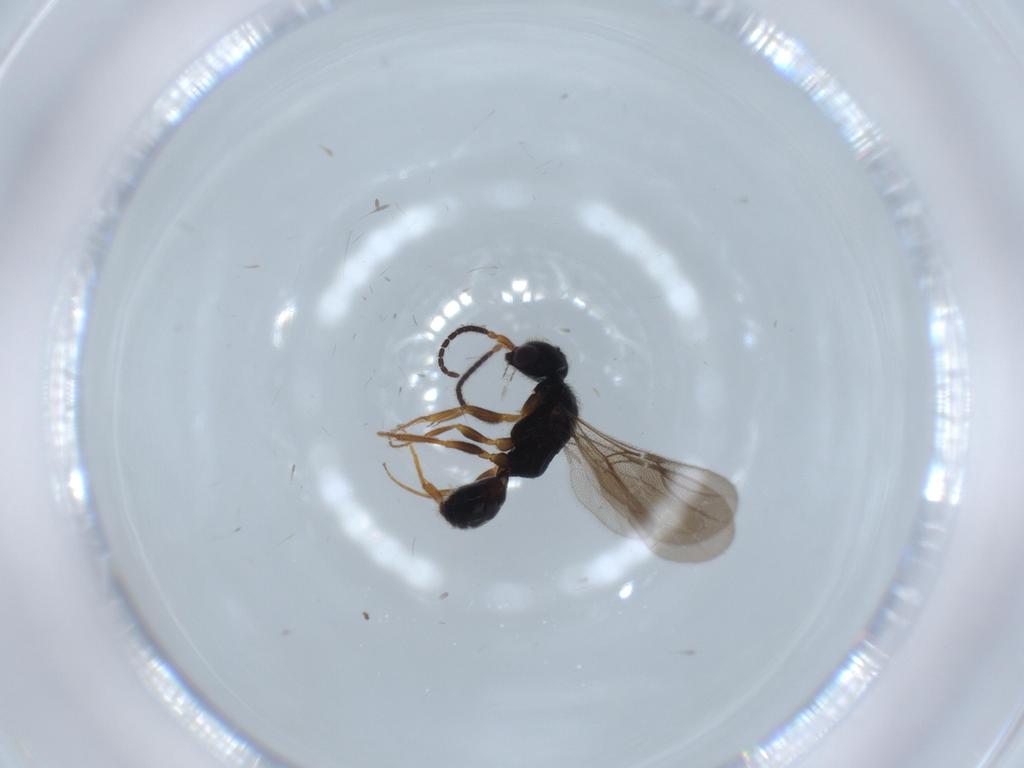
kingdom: Animalia
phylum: Arthropoda
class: Insecta
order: Hymenoptera
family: Bethylidae
